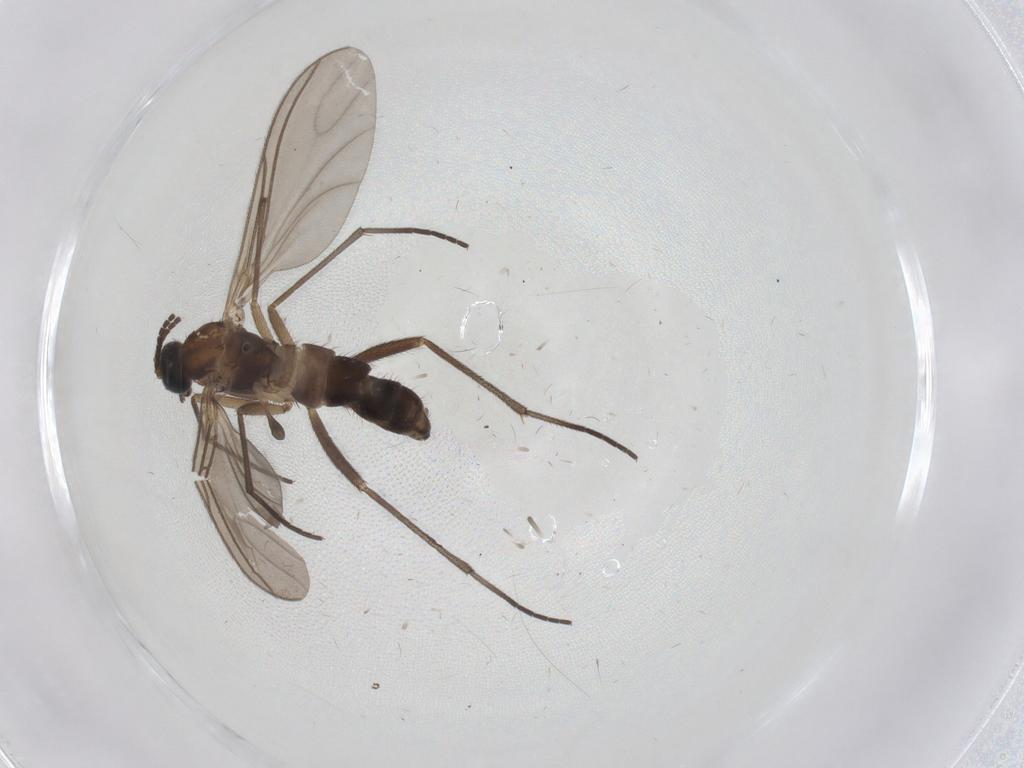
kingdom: Animalia
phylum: Arthropoda
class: Insecta
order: Diptera
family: Sciaridae
